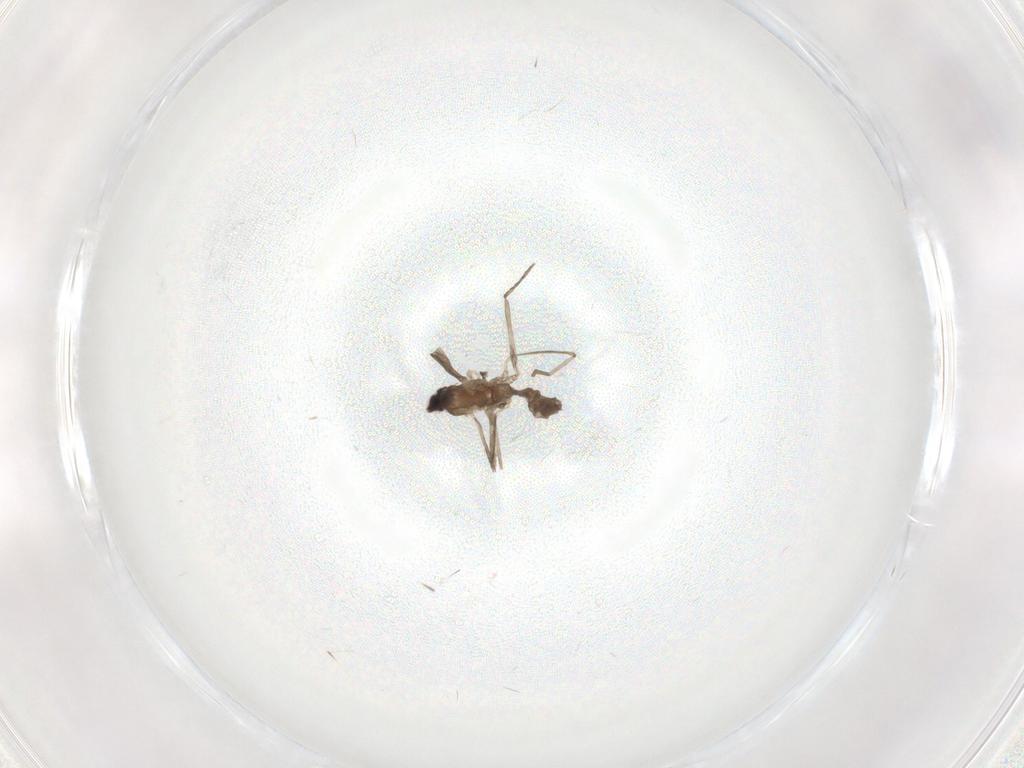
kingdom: Animalia
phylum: Arthropoda
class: Insecta
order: Diptera
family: Cecidomyiidae
